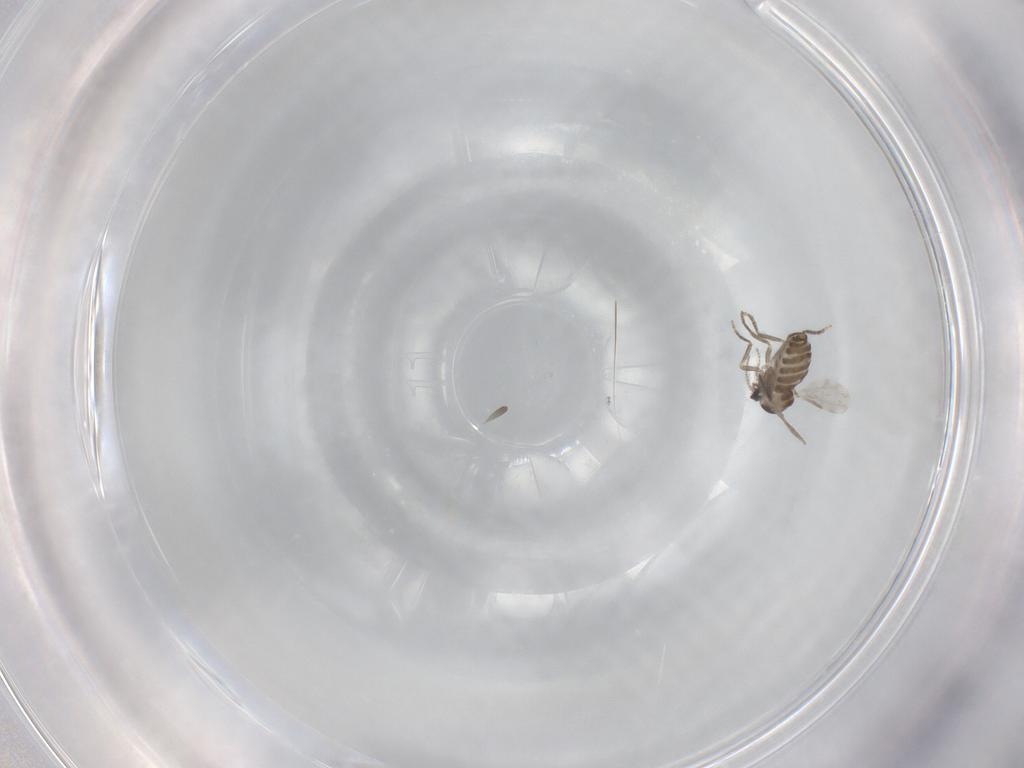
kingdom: Animalia
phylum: Arthropoda
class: Insecta
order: Diptera
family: Ceratopogonidae
